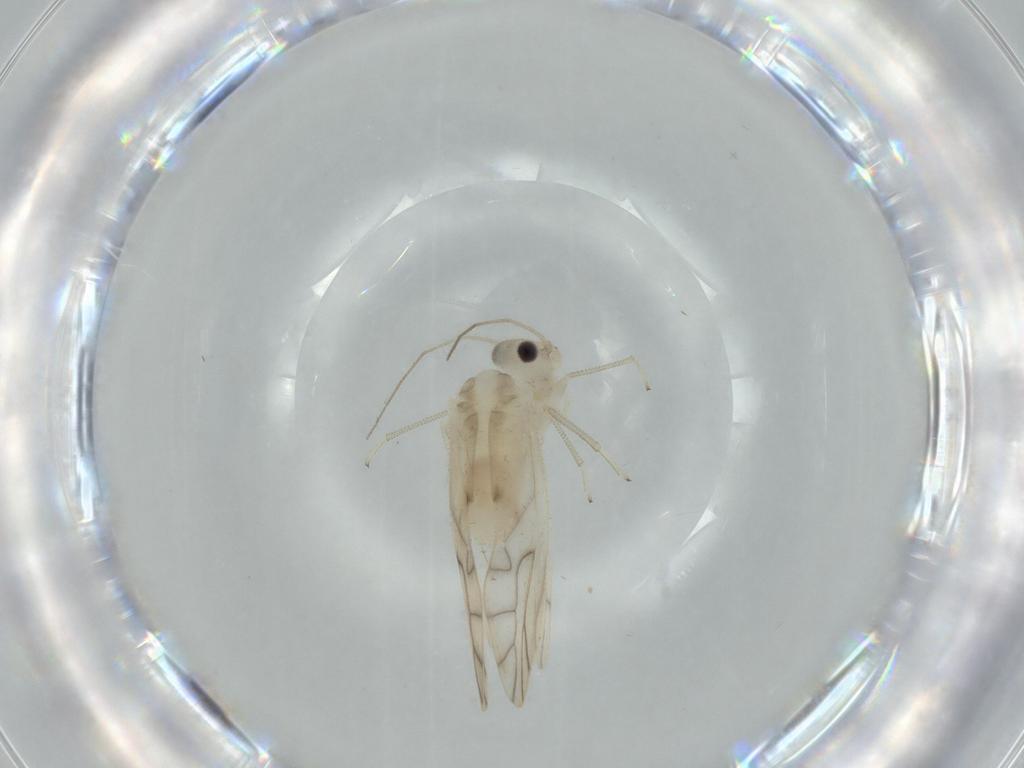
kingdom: Animalia
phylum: Arthropoda
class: Insecta
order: Psocodea
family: Caeciliusidae
